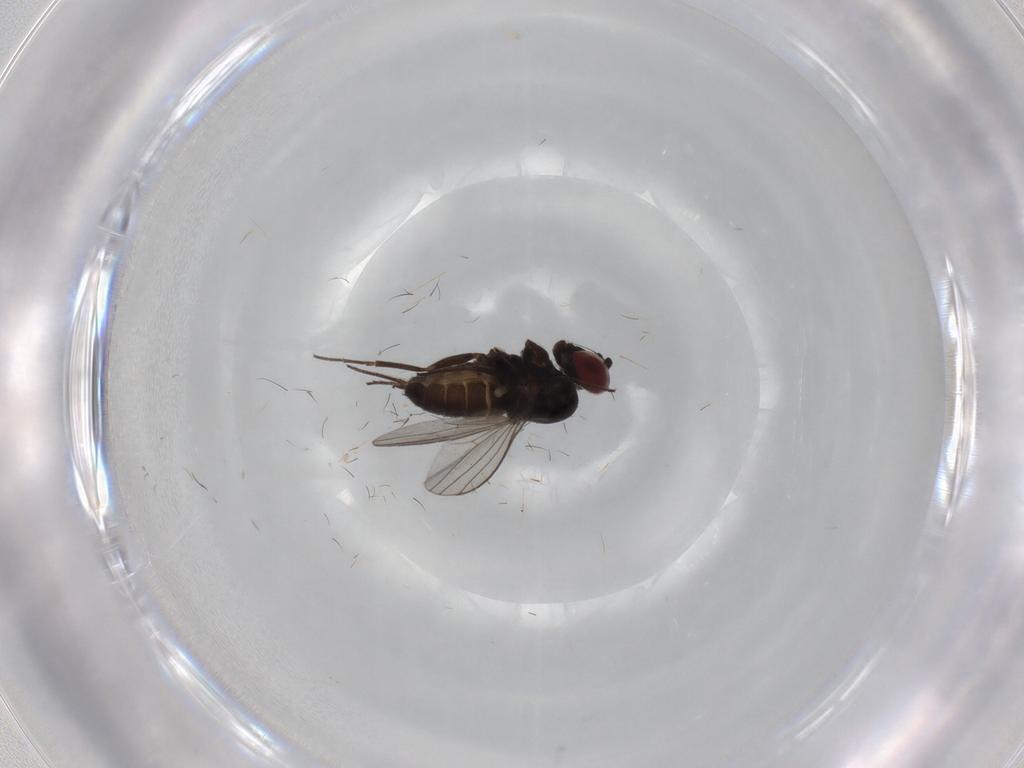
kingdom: Animalia
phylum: Arthropoda
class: Insecta
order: Diptera
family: Dolichopodidae
